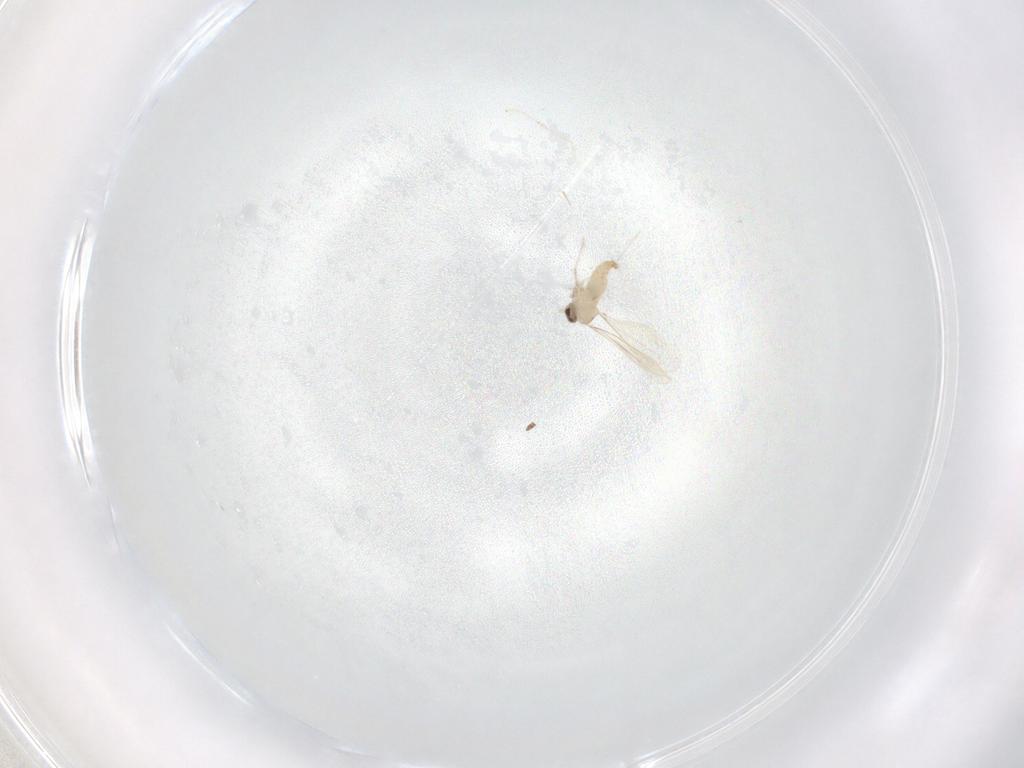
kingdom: Animalia
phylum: Arthropoda
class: Insecta
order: Diptera
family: Cecidomyiidae
